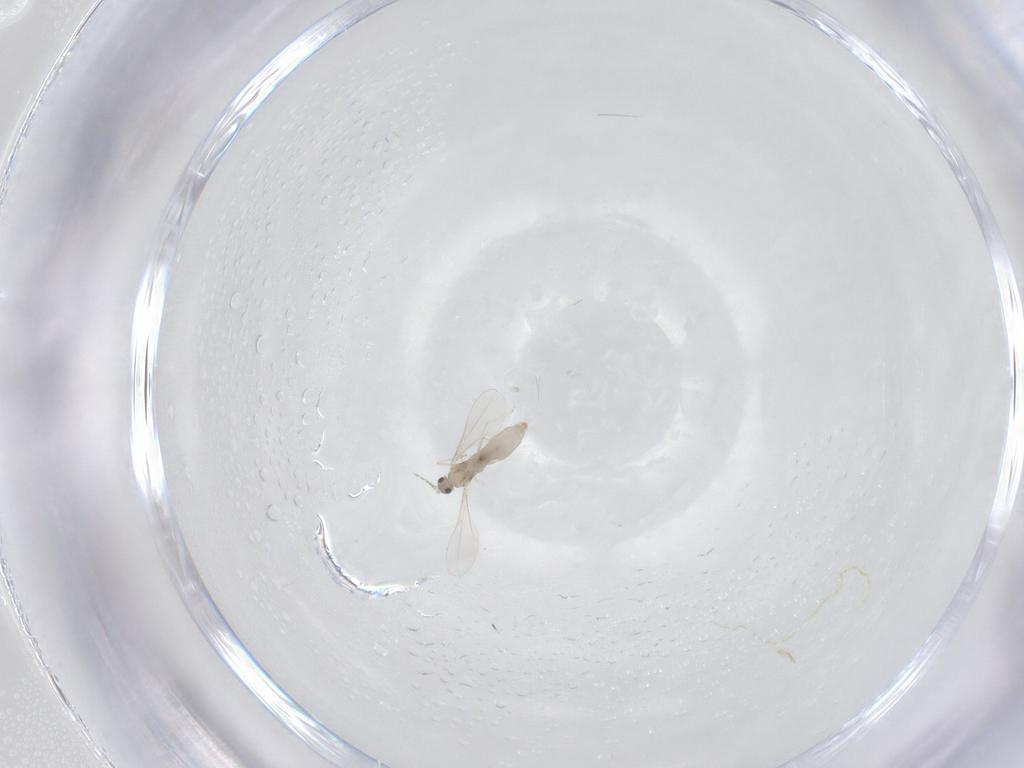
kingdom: Animalia
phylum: Arthropoda
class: Insecta
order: Diptera
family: Cecidomyiidae
